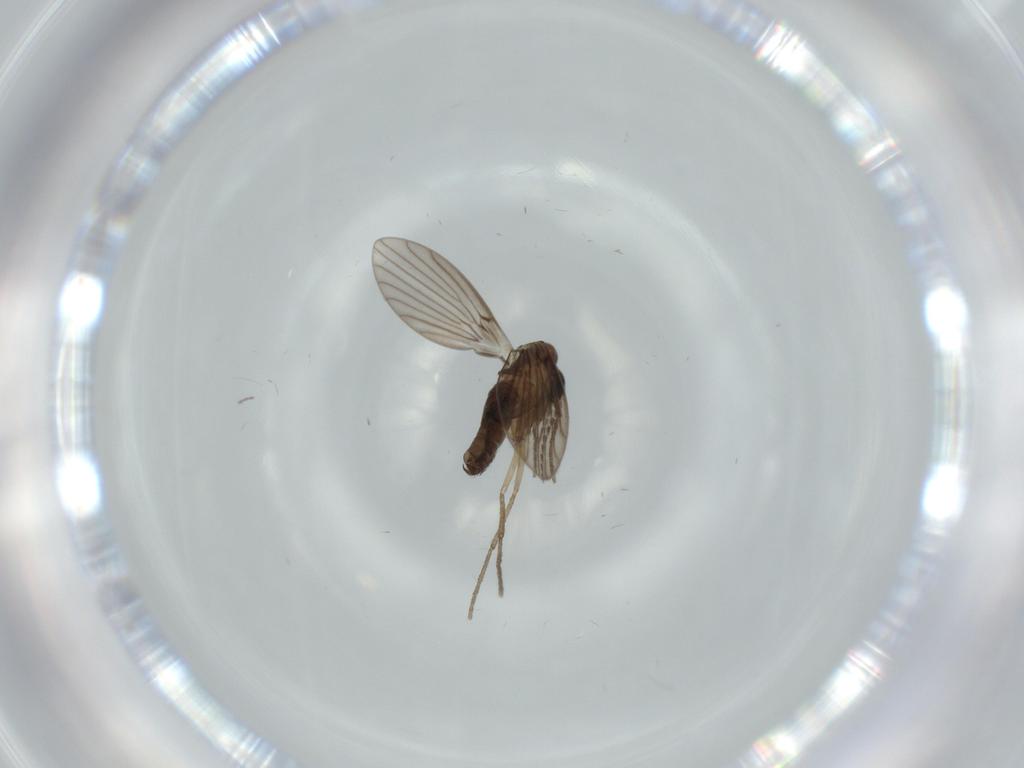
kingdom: Animalia
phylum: Arthropoda
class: Insecta
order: Diptera
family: Psychodidae
